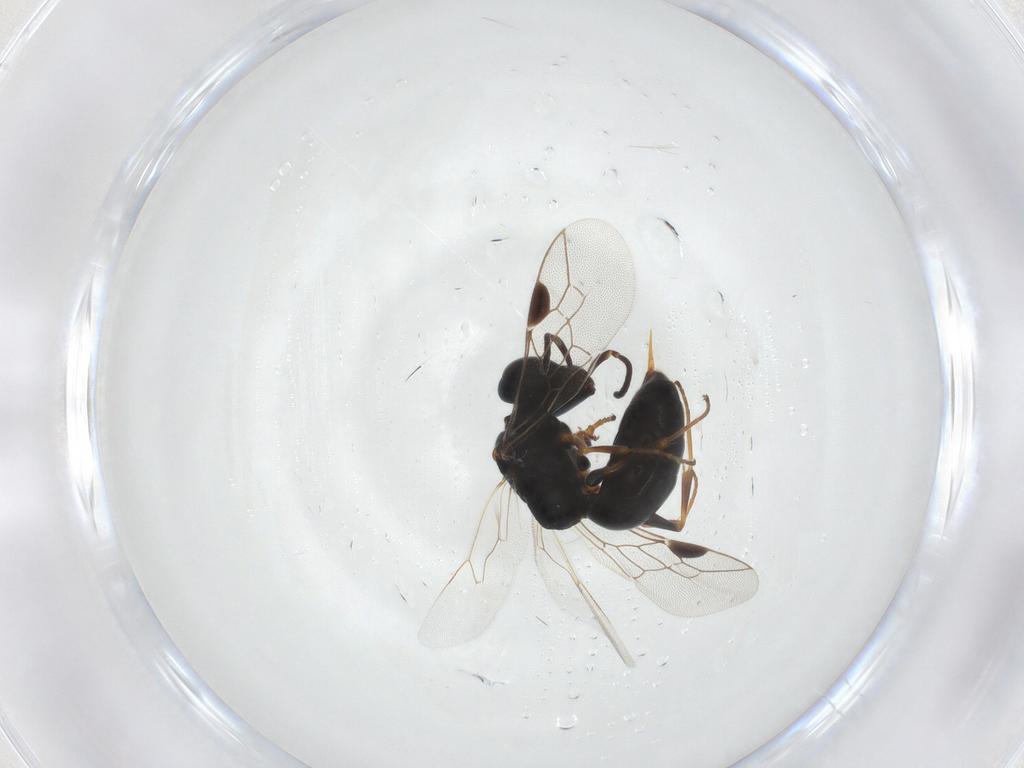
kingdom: Animalia
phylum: Arthropoda
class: Insecta
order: Hymenoptera
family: Crabronidae
